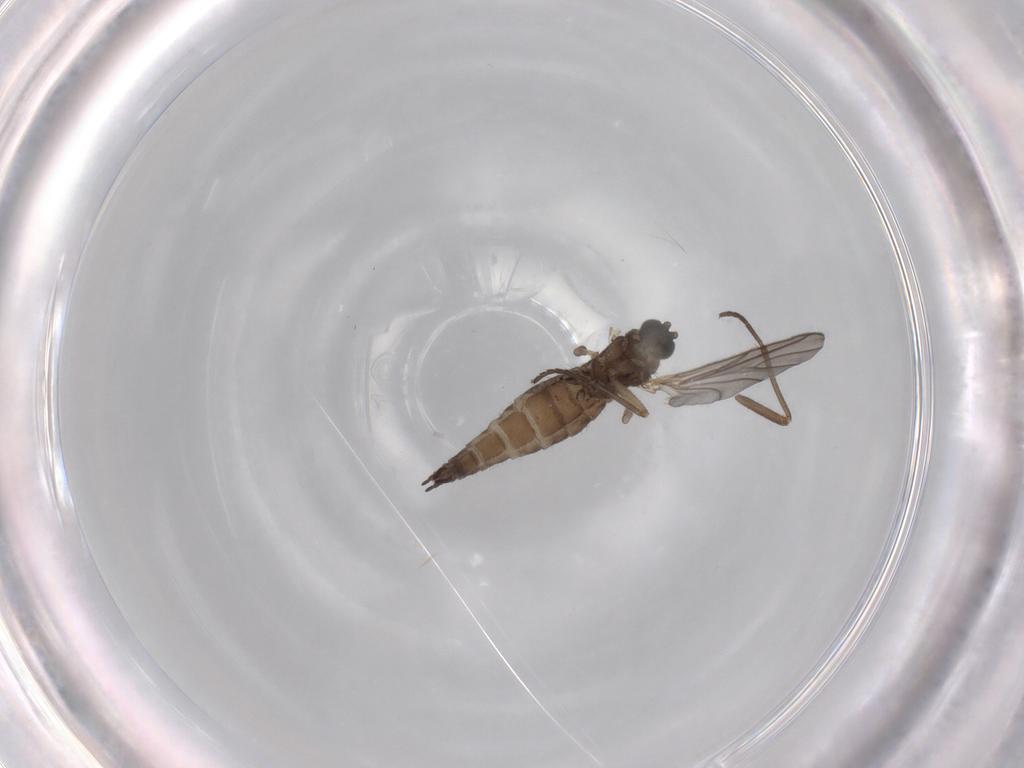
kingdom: Animalia
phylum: Arthropoda
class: Insecta
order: Diptera
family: Sciaridae
